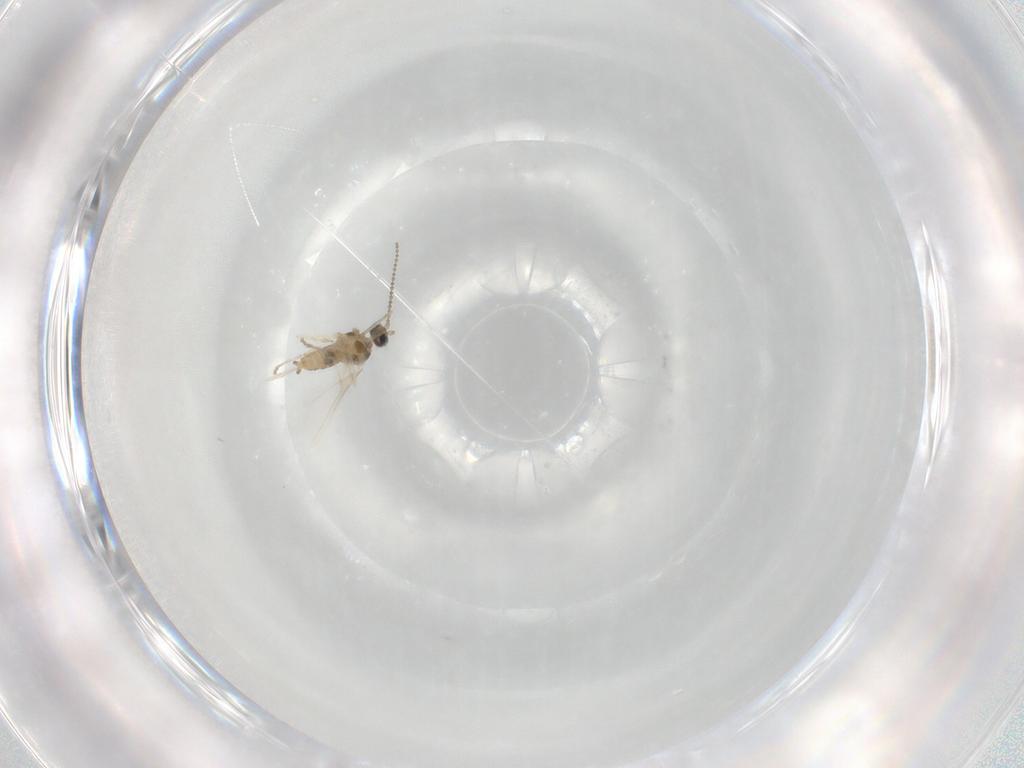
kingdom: Animalia
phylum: Arthropoda
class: Insecta
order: Diptera
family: Cecidomyiidae
